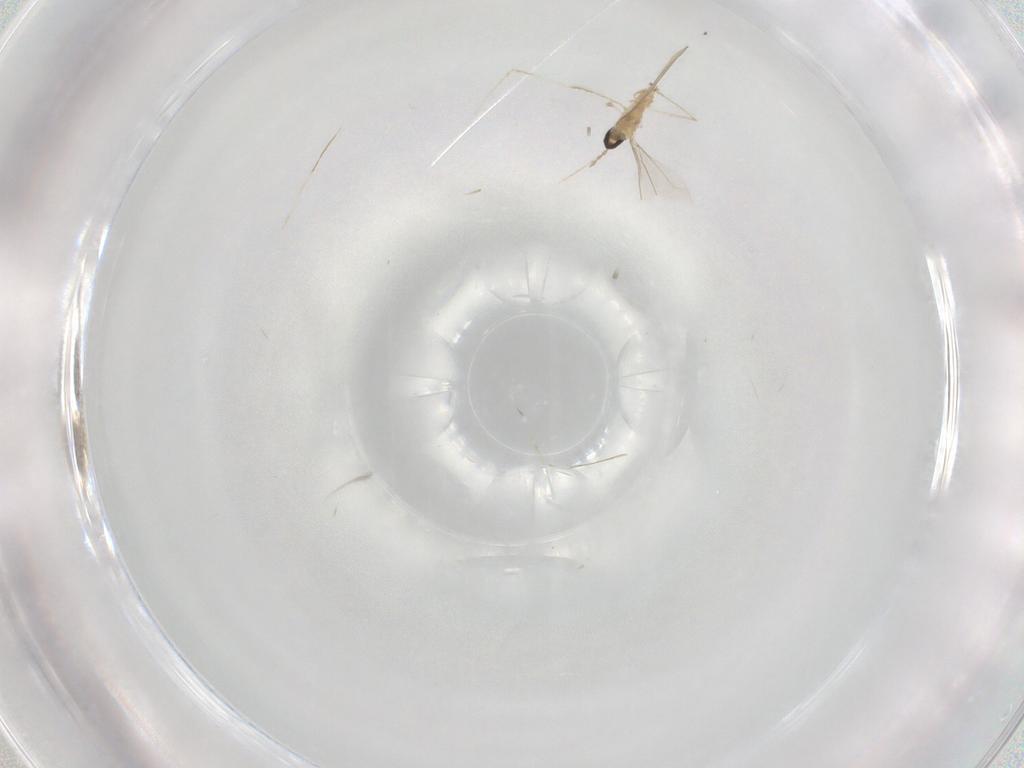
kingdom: Animalia
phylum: Arthropoda
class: Insecta
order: Diptera
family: Cecidomyiidae
